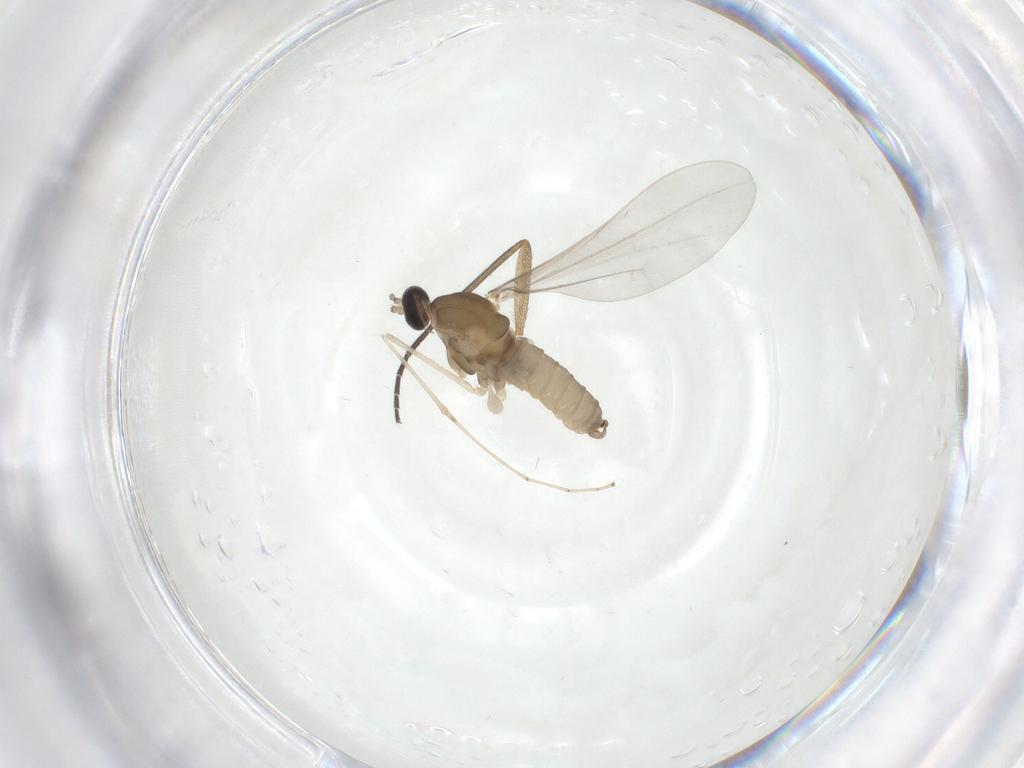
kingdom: Animalia
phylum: Arthropoda
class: Insecta
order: Diptera
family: Cecidomyiidae
